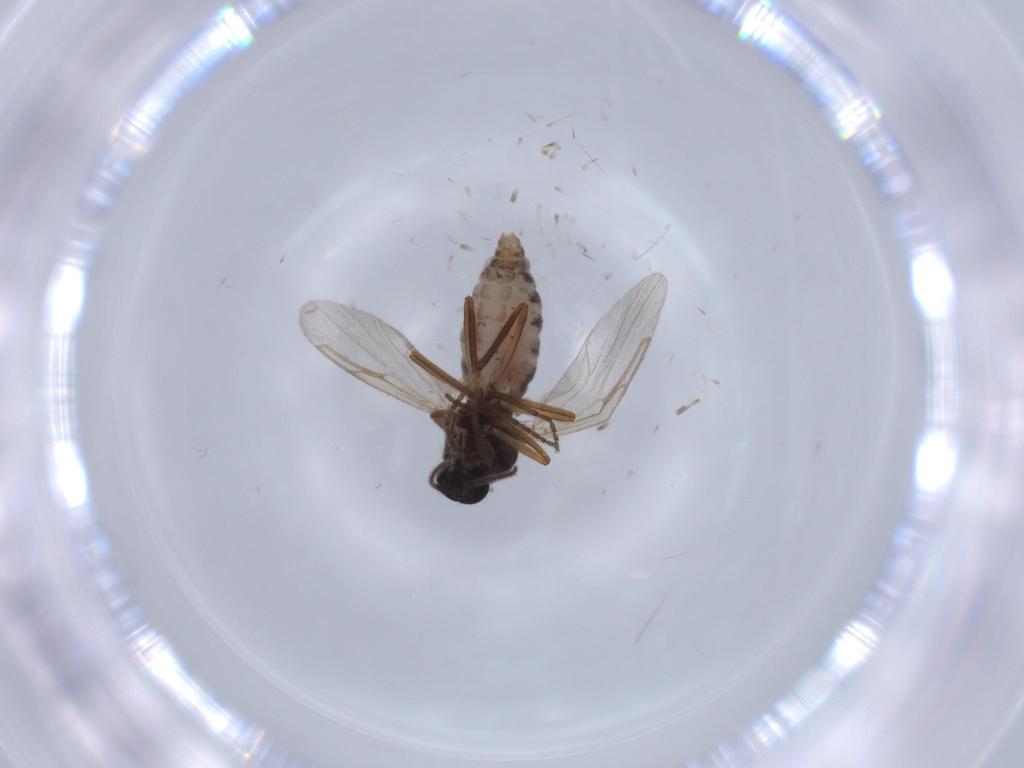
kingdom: Animalia
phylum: Arthropoda
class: Insecta
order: Diptera
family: Ceratopogonidae
